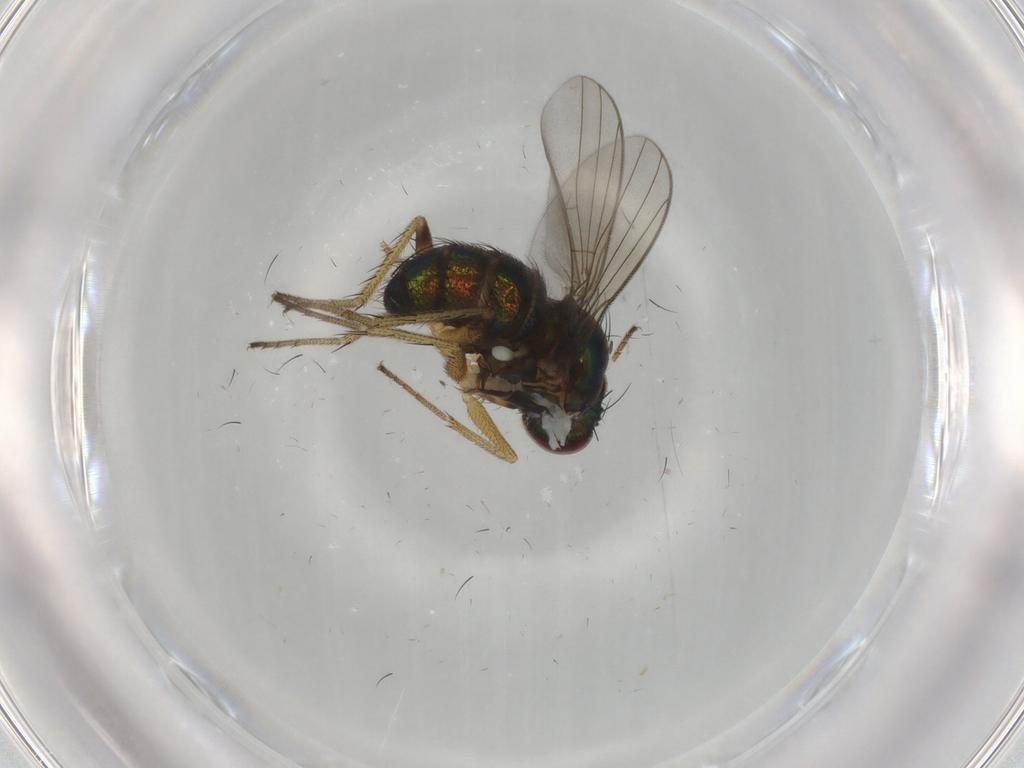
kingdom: Animalia
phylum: Arthropoda
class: Insecta
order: Diptera
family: Dolichopodidae
